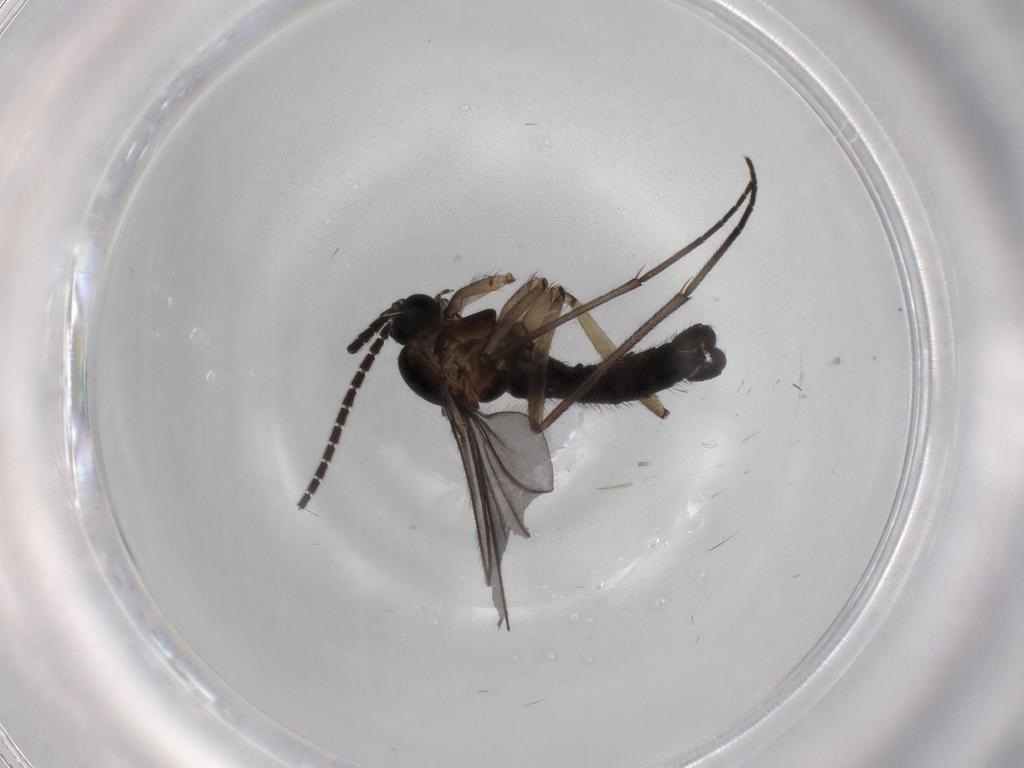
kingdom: Animalia
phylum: Arthropoda
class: Insecta
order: Diptera
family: Sciaridae
